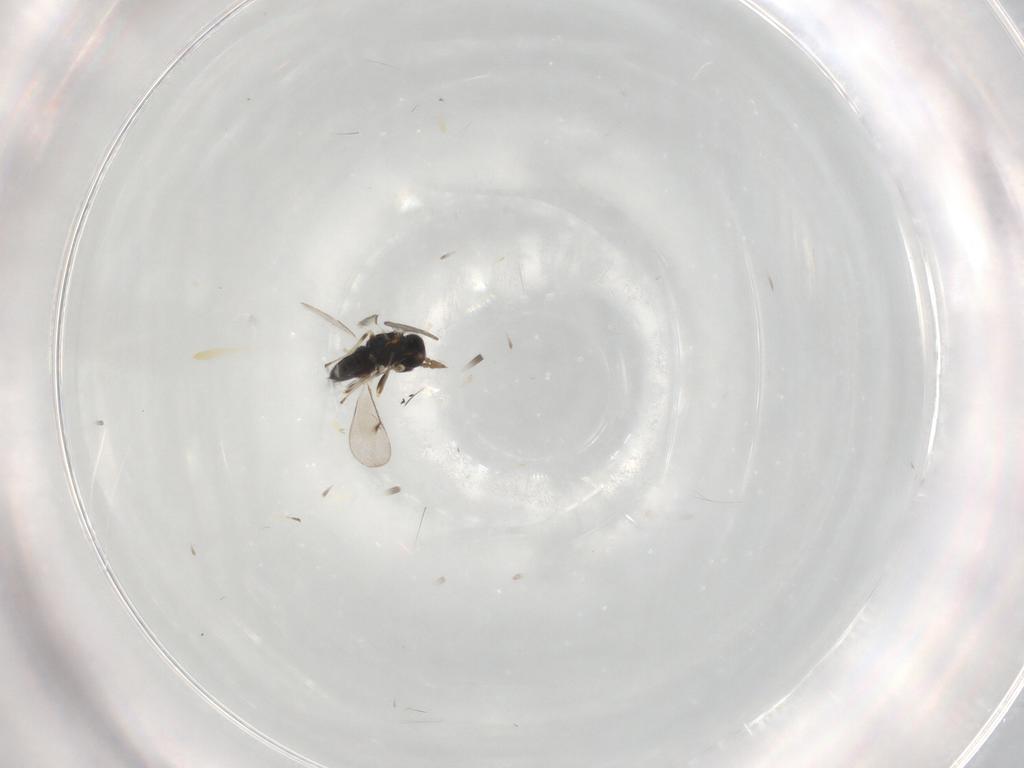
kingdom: Animalia
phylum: Arthropoda
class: Insecta
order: Hymenoptera
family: Eulophidae
